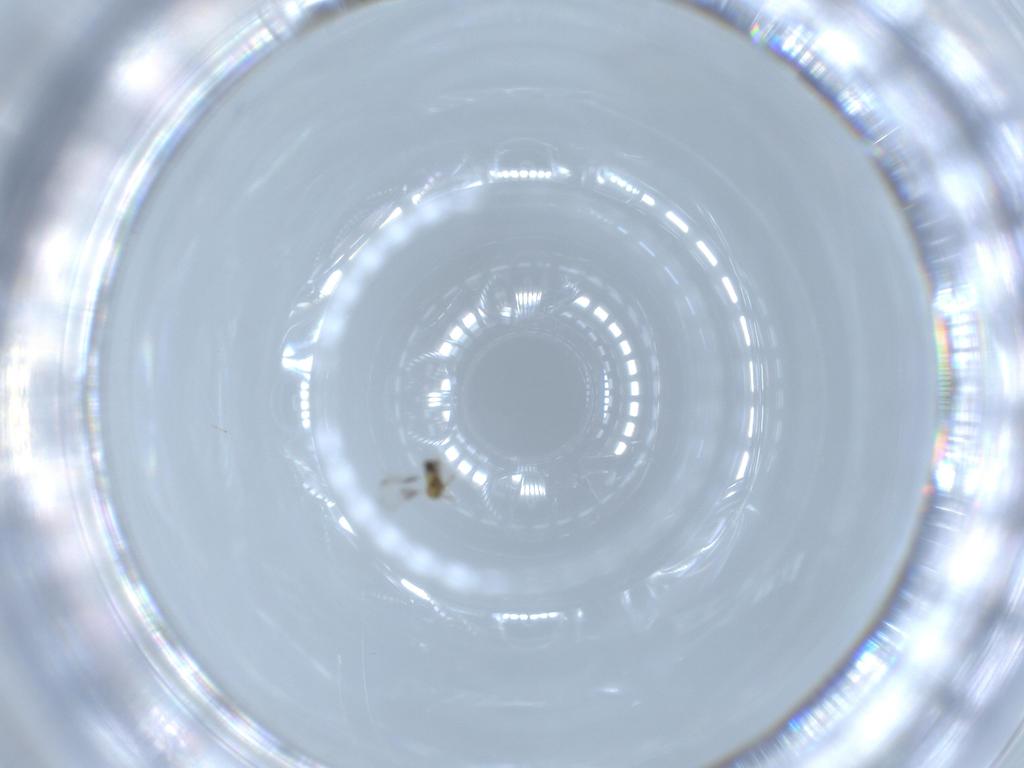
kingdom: Animalia
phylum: Arthropoda
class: Insecta
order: Hymenoptera
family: Aphelinidae
